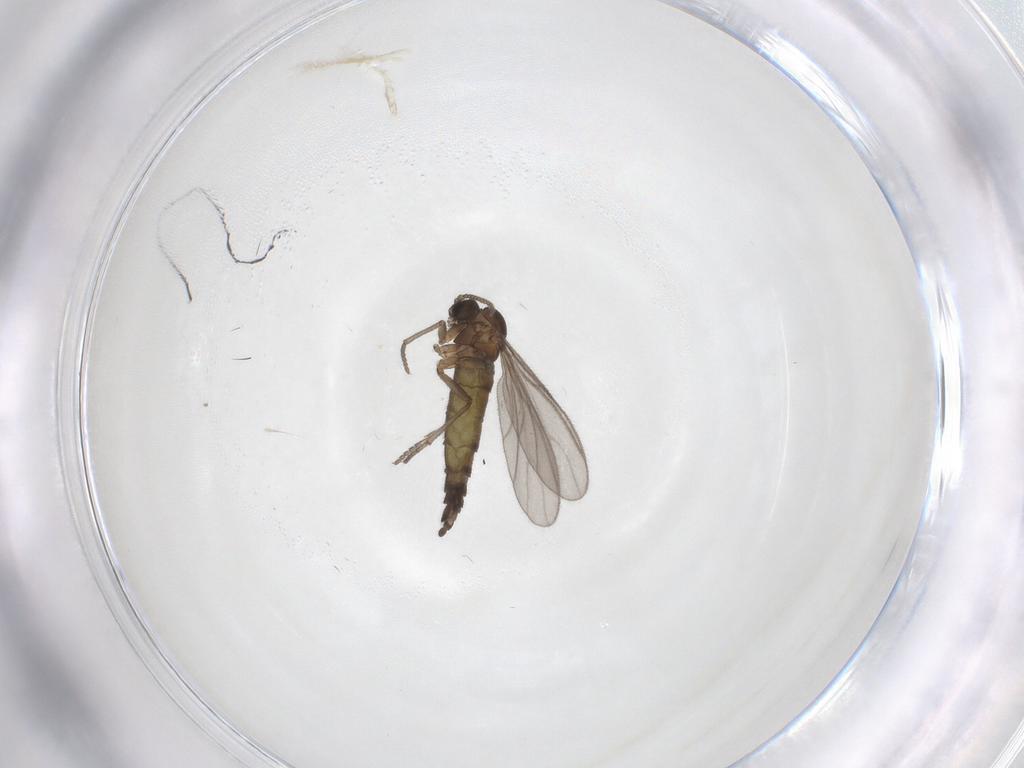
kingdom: Animalia
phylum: Arthropoda
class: Insecta
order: Diptera
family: Sciaridae
